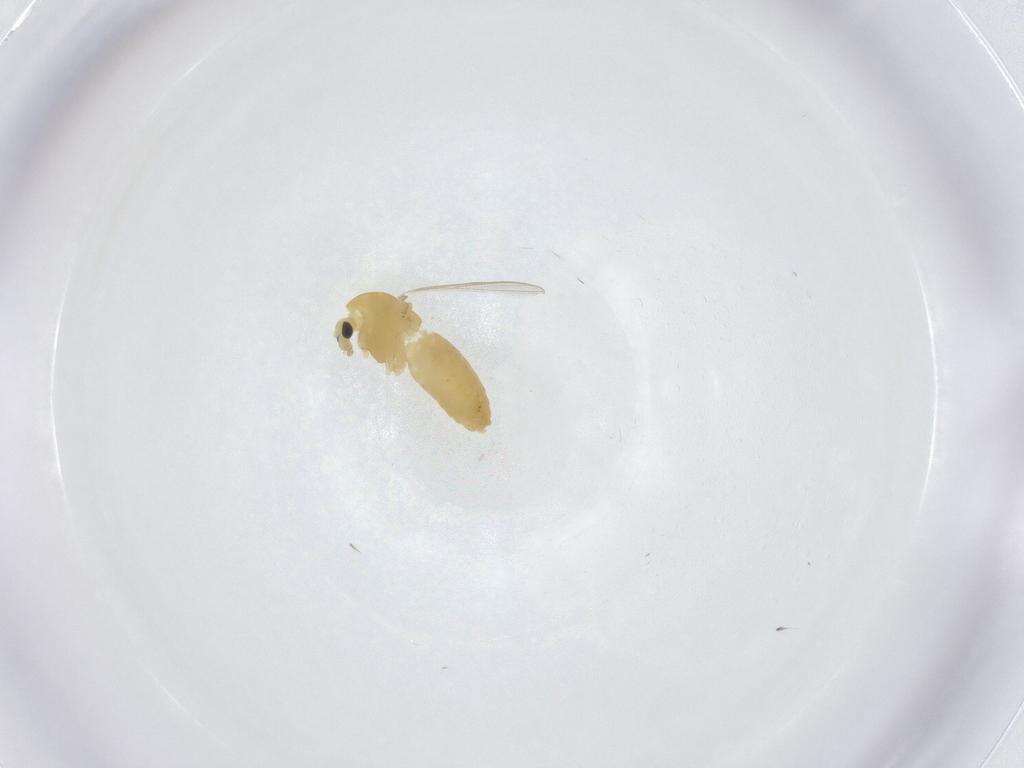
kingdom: Animalia
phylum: Arthropoda
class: Insecta
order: Diptera
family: Chironomidae
